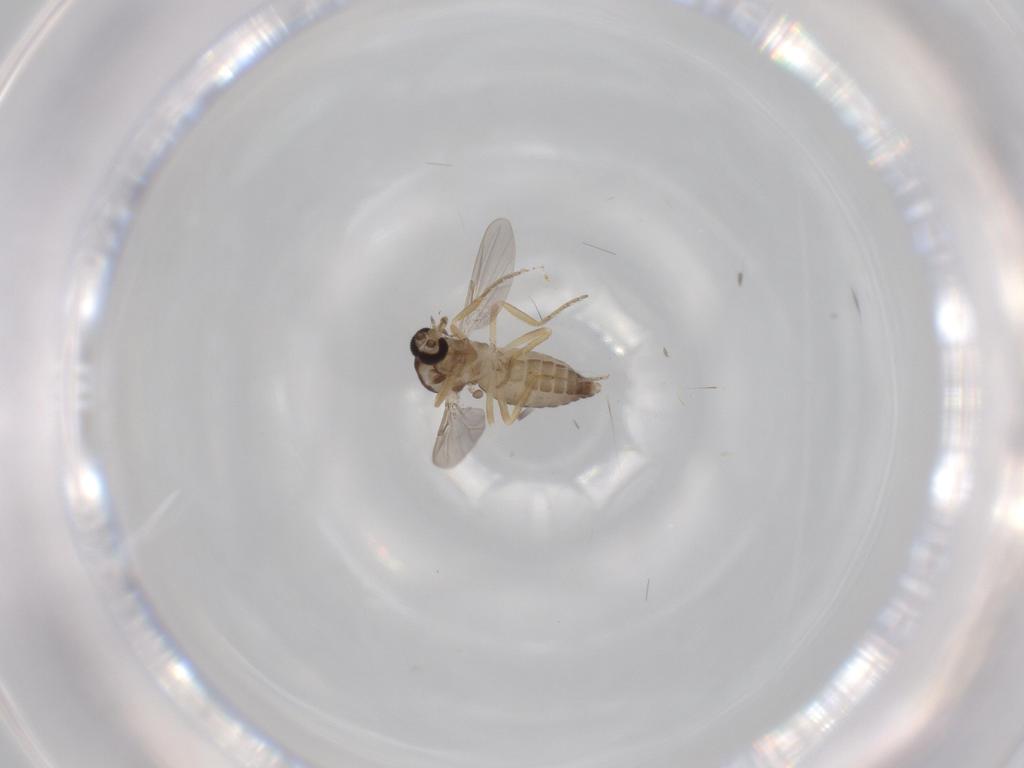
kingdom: Animalia
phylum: Arthropoda
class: Insecta
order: Diptera
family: Ceratopogonidae
